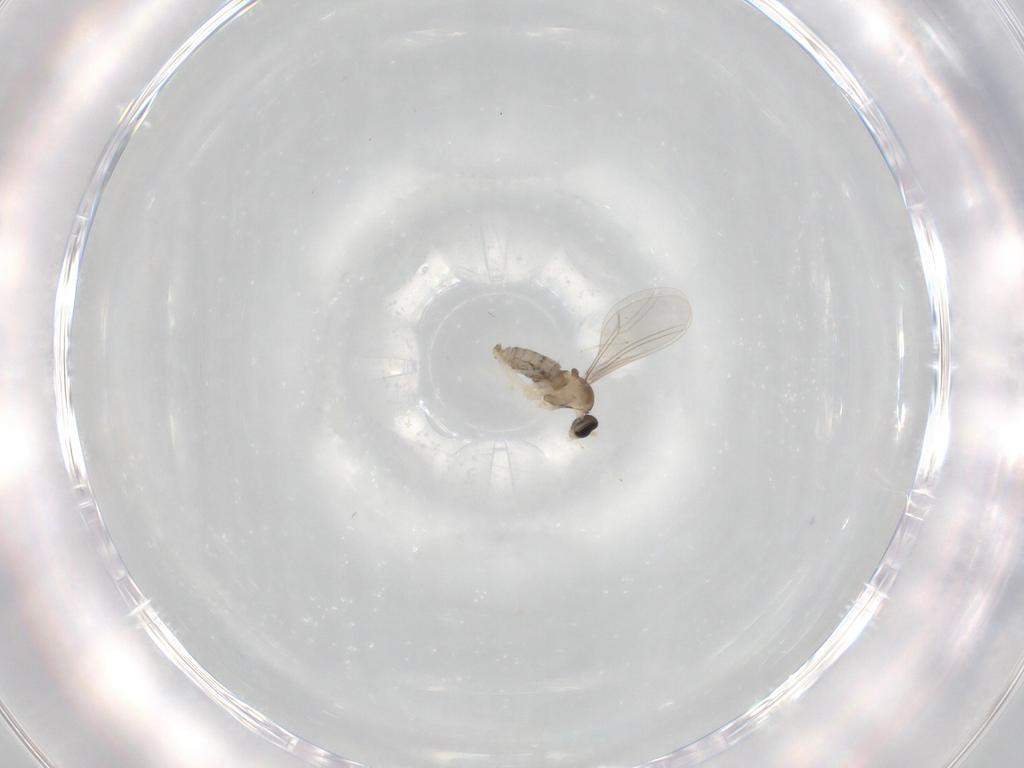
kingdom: Animalia
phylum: Arthropoda
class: Insecta
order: Diptera
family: Cecidomyiidae
